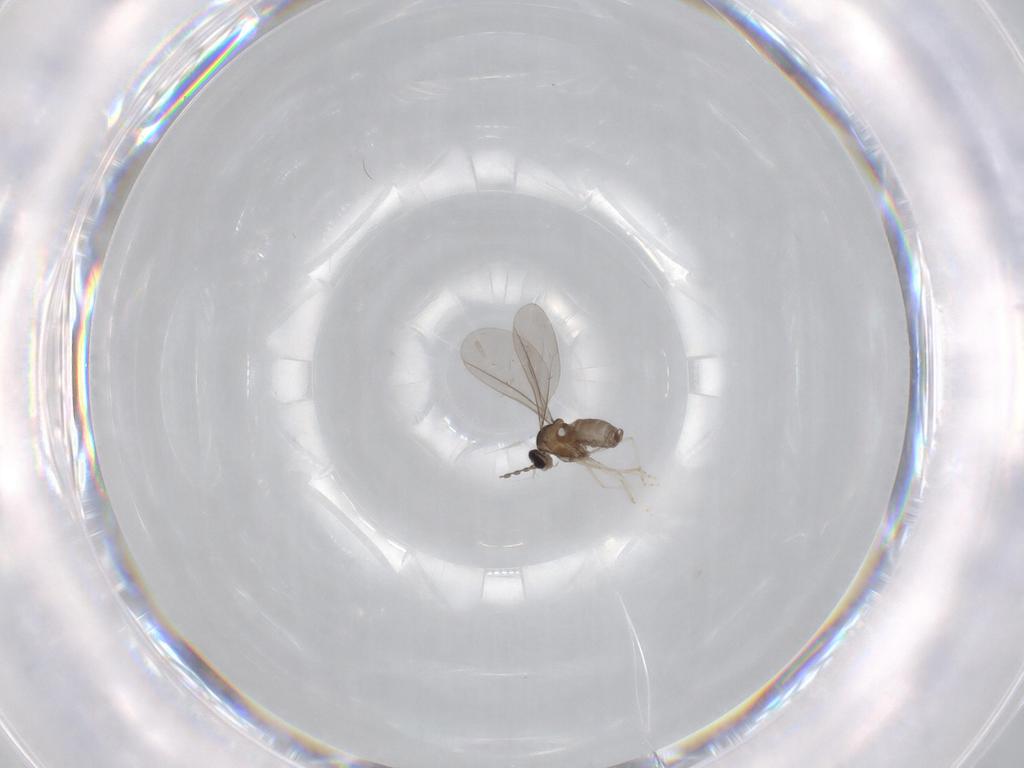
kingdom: Animalia
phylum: Arthropoda
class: Insecta
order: Diptera
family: Cecidomyiidae
